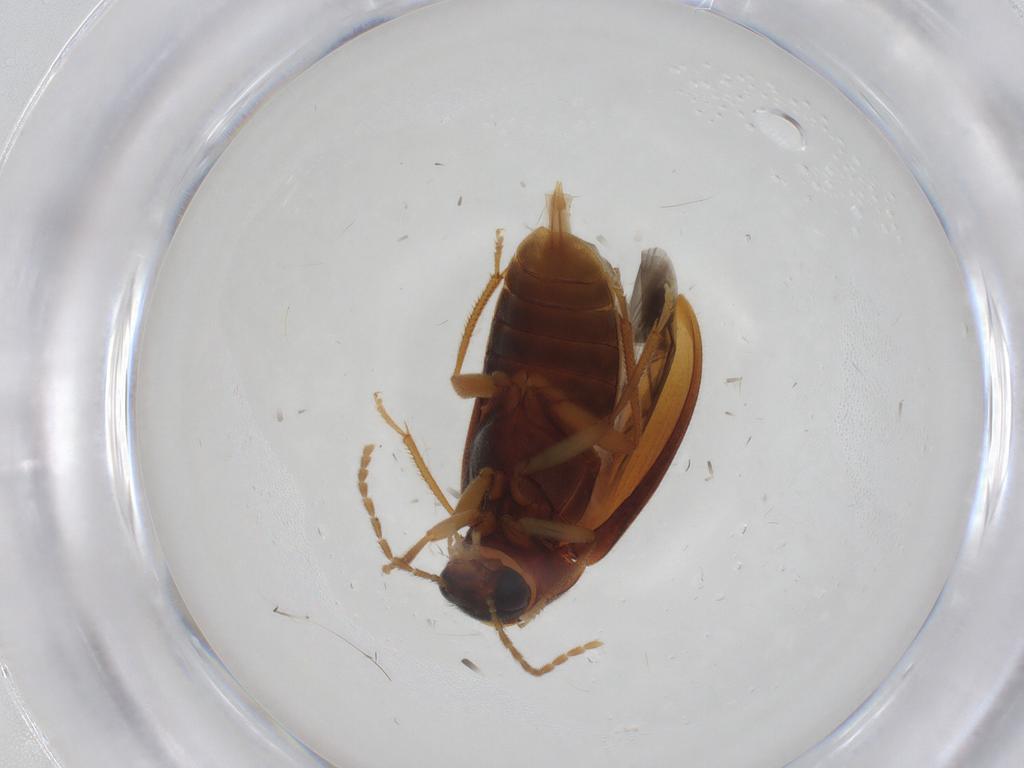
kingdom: Animalia
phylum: Arthropoda
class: Insecta
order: Coleoptera
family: Ptilodactylidae
